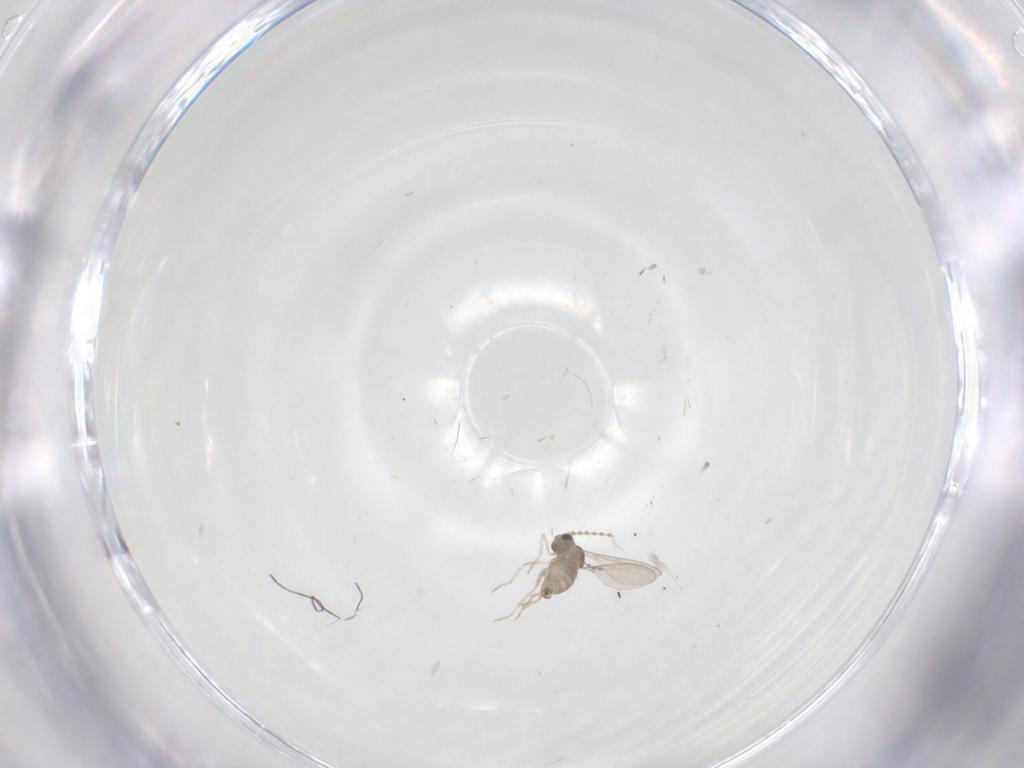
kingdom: Animalia
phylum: Arthropoda
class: Insecta
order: Diptera
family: Cecidomyiidae
